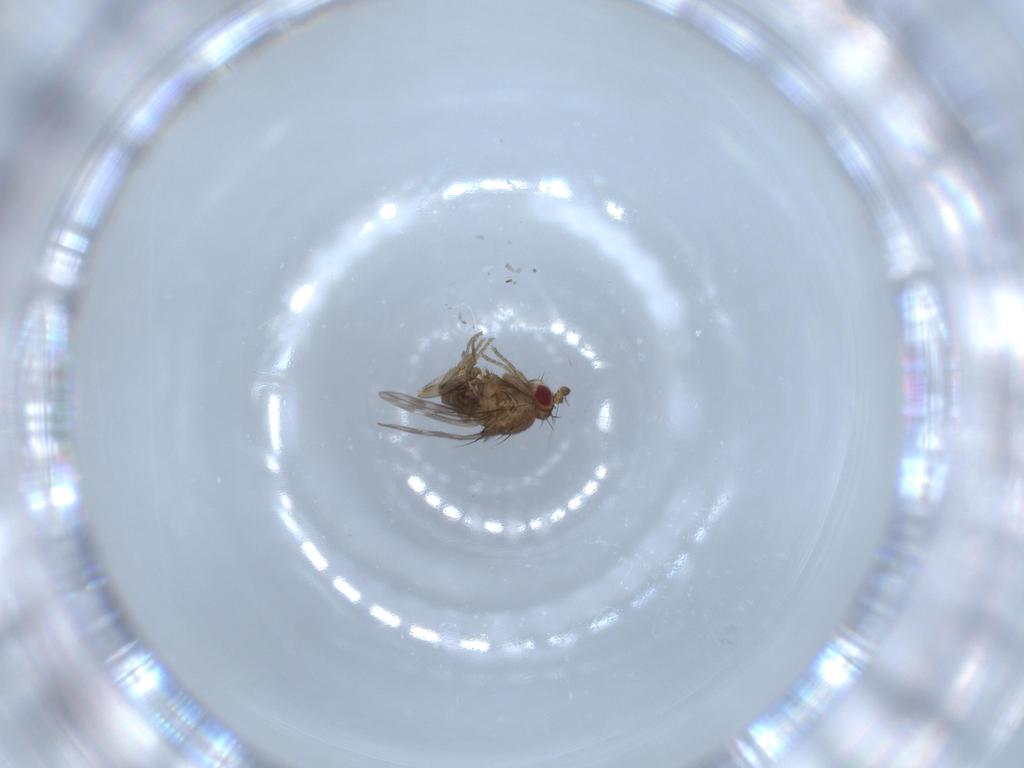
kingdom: Animalia
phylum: Arthropoda
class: Insecta
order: Diptera
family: Sphaeroceridae
